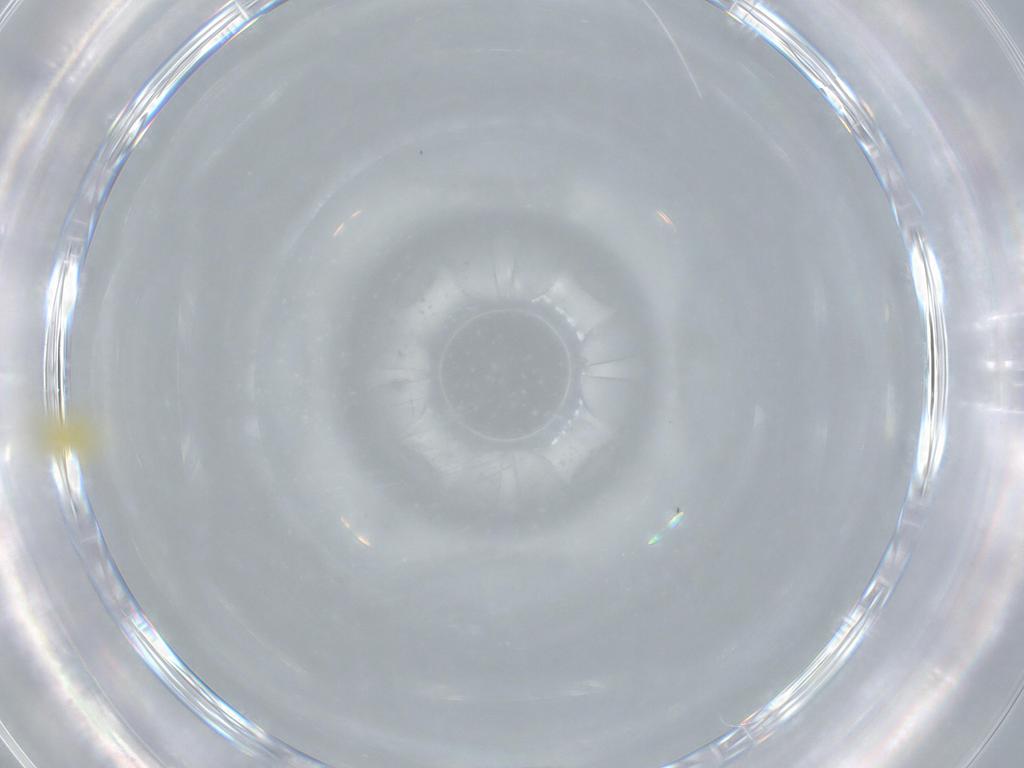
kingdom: Animalia
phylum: Arthropoda
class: Insecta
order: Hemiptera
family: Aleyrodidae
